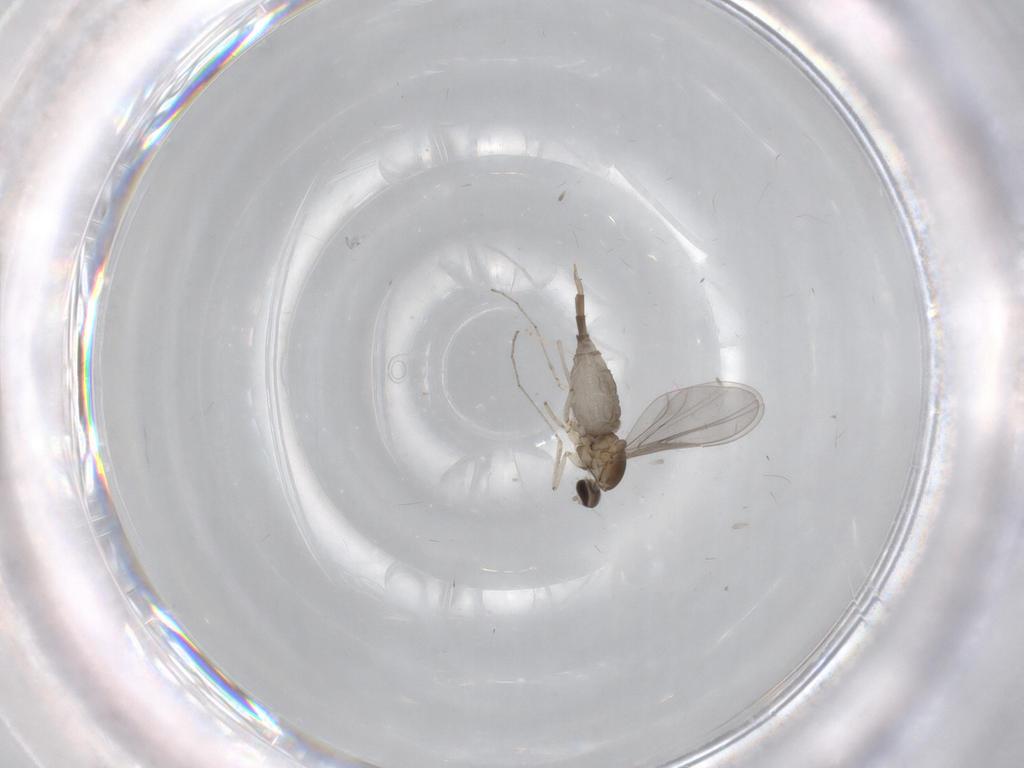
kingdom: Animalia
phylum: Arthropoda
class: Insecta
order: Diptera
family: Cecidomyiidae
